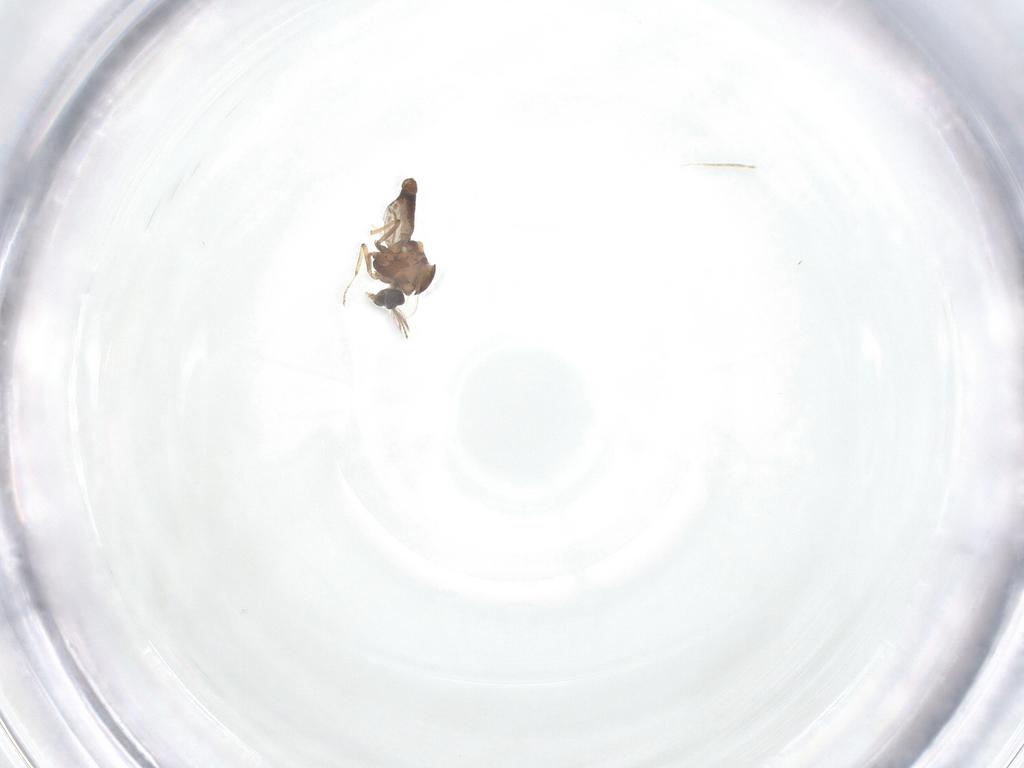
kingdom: Animalia
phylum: Arthropoda
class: Insecta
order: Diptera
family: Ceratopogonidae
